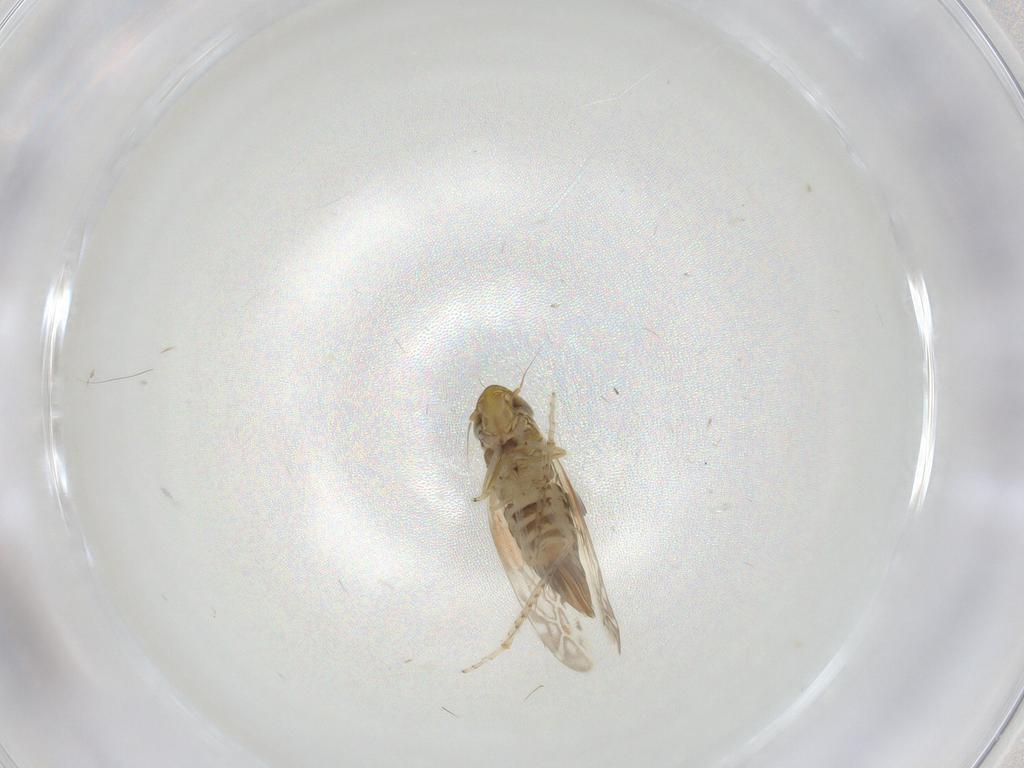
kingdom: Animalia
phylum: Arthropoda
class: Insecta
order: Hemiptera
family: Cicadellidae
